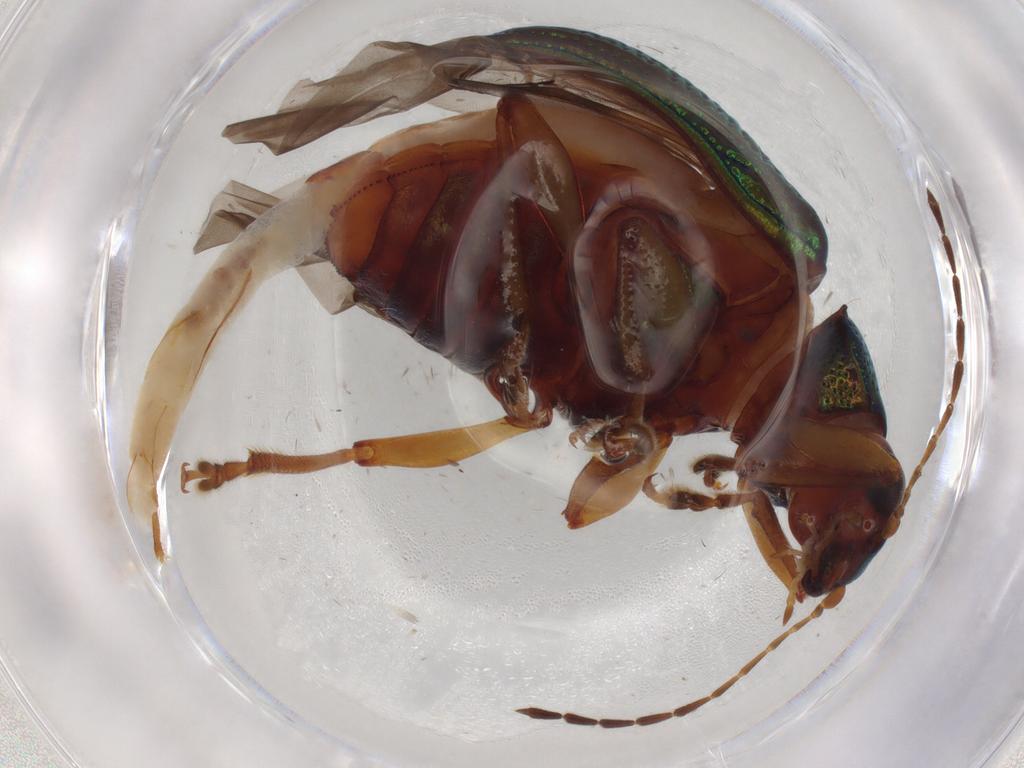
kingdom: Animalia
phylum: Arthropoda
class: Insecta
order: Coleoptera
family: Chrysomelidae
